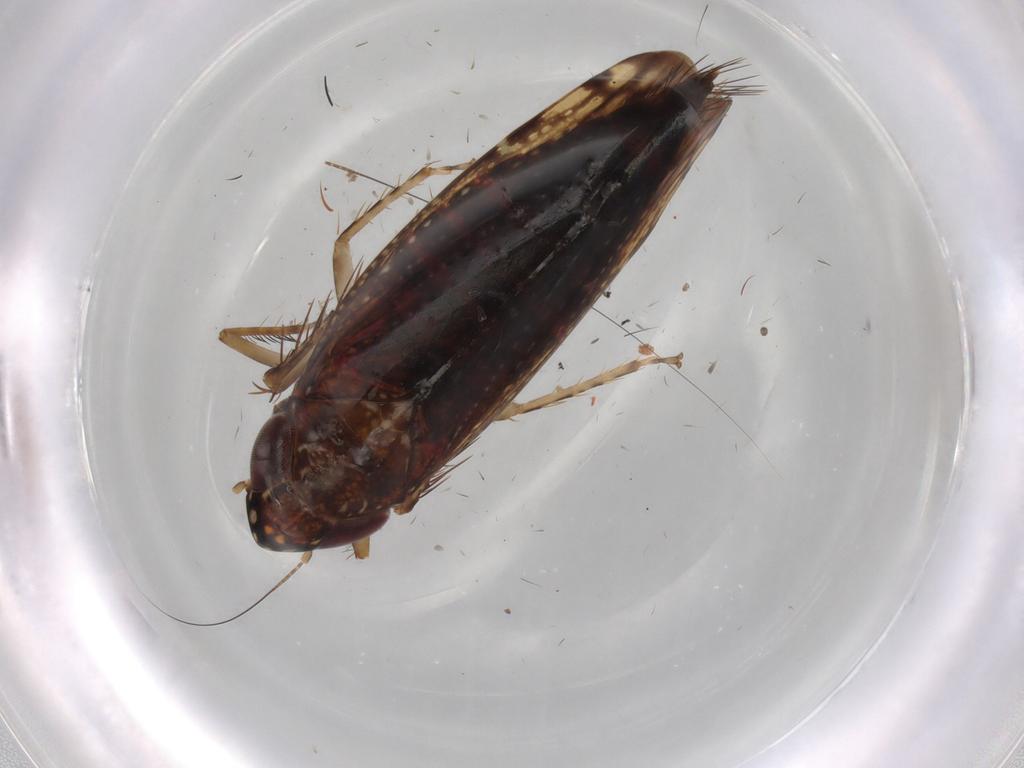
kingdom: Animalia
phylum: Arthropoda
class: Insecta
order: Hemiptera
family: Cicadellidae
